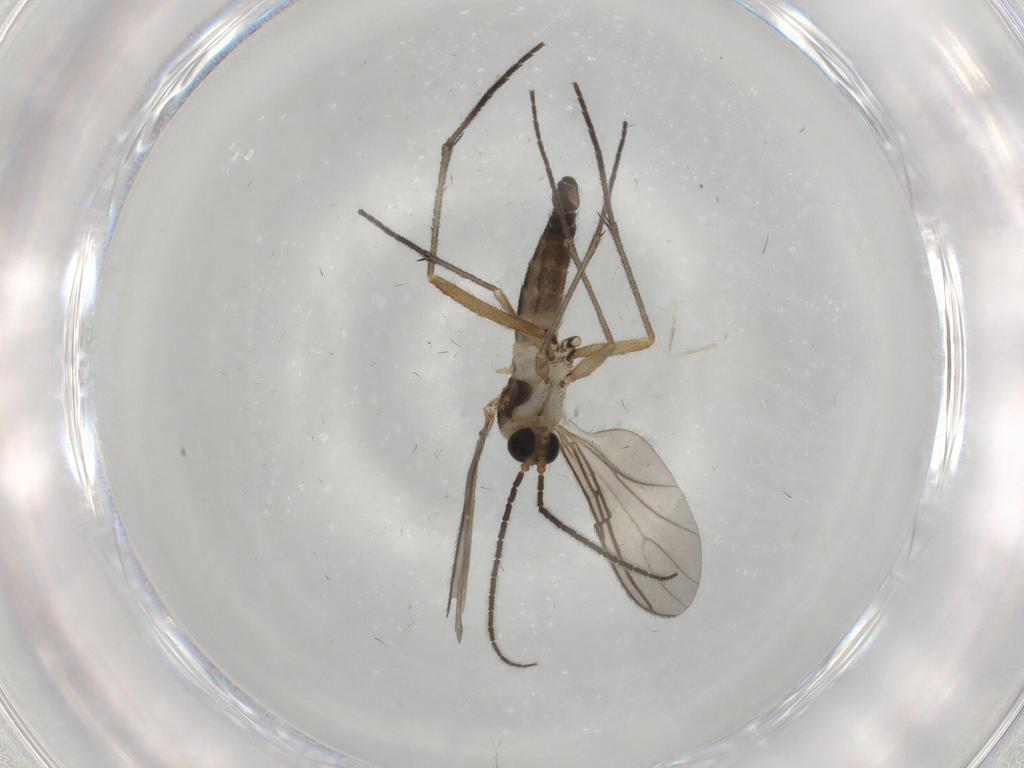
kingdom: Animalia
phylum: Arthropoda
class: Insecta
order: Diptera
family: Sciaridae
